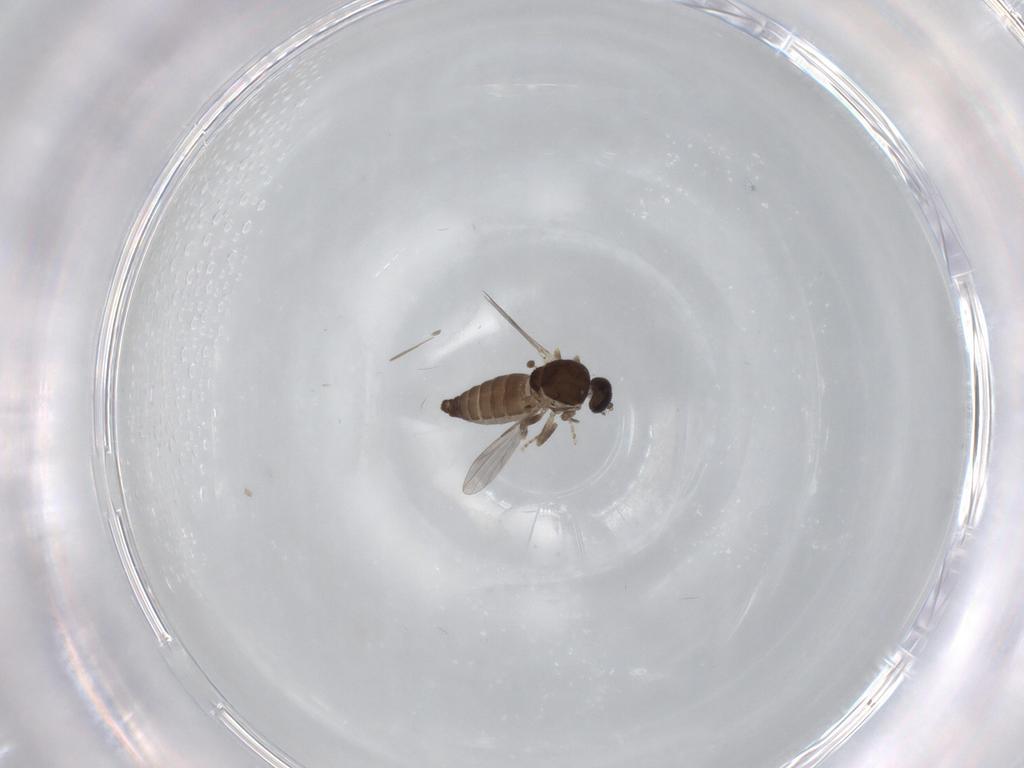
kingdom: Animalia
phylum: Arthropoda
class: Insecta
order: Diptera
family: Ceratopogonidae
